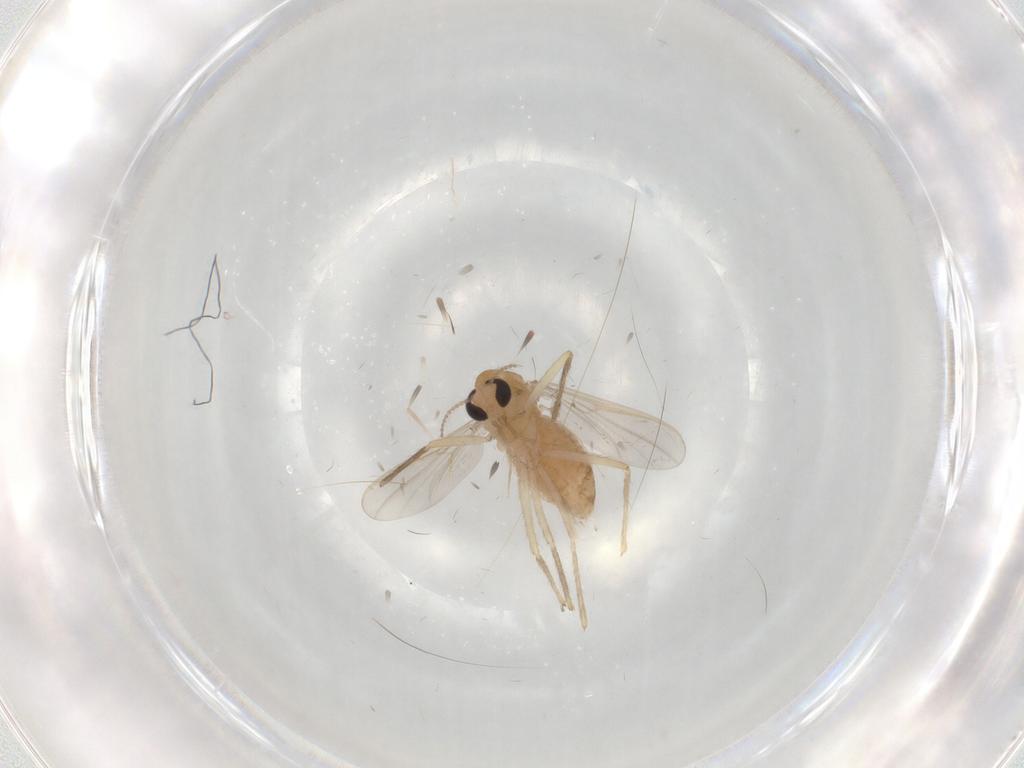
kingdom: Animalia
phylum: Arthropoda
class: Insecta
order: Diptera
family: Chironomidae
